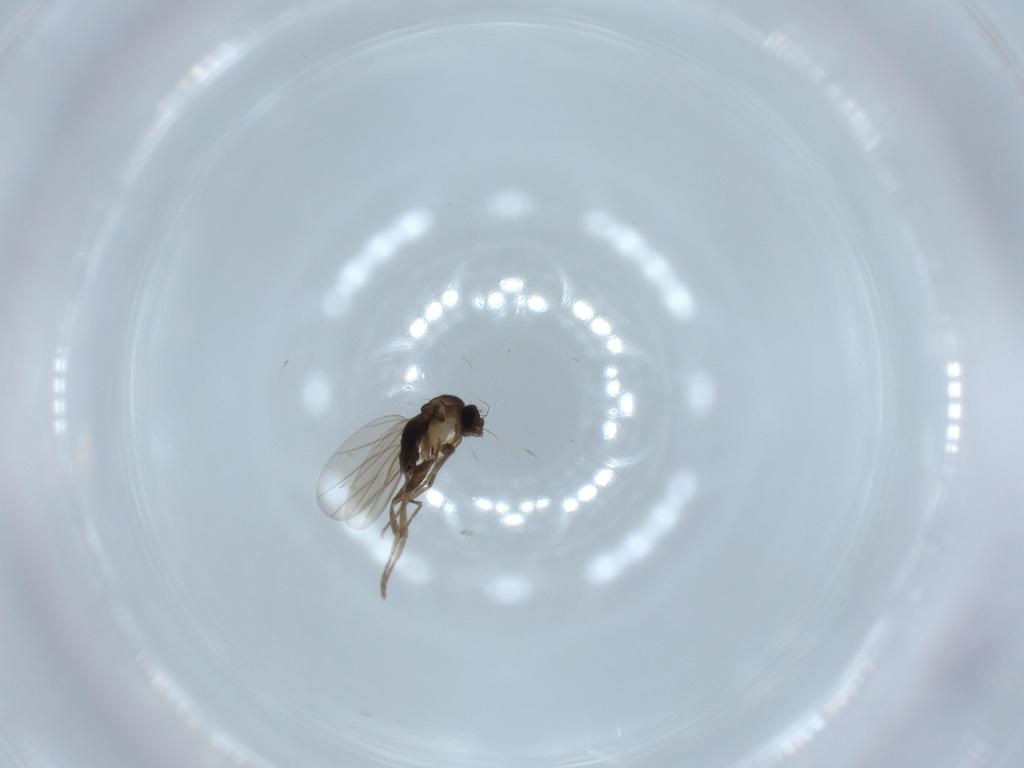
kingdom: Animalia
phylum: Arthropoda
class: Insecta
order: Diptera
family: Phoridae
